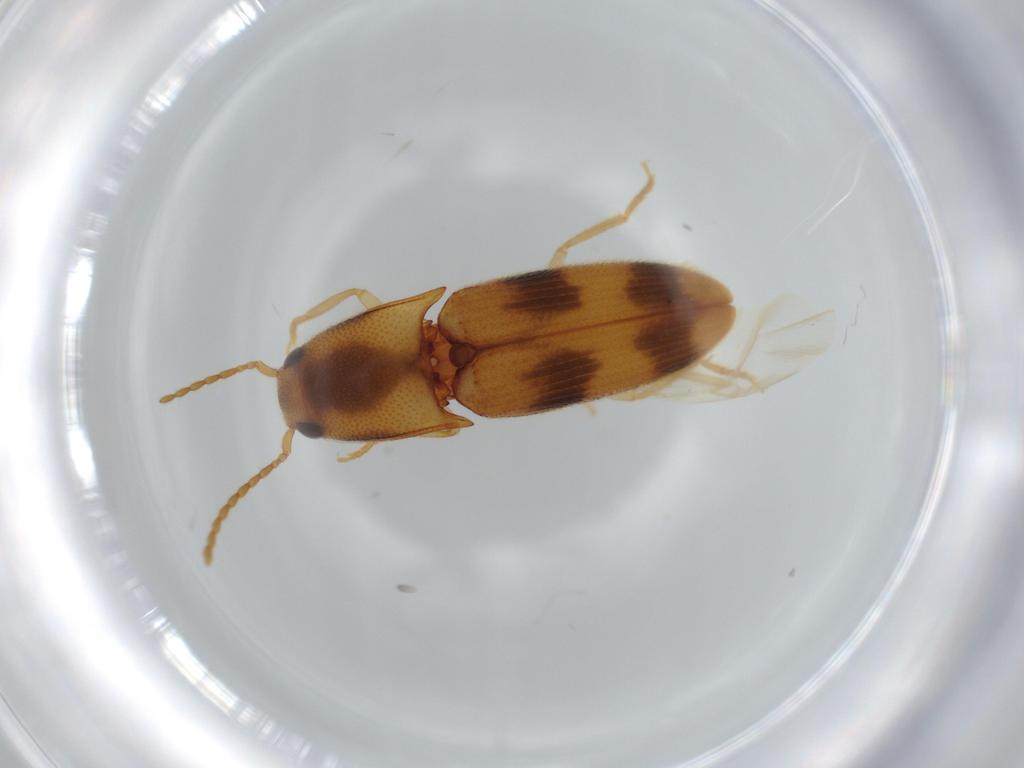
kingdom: Animalia
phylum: Arthropoda
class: Insecta
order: Coleoptera
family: Elateridae
